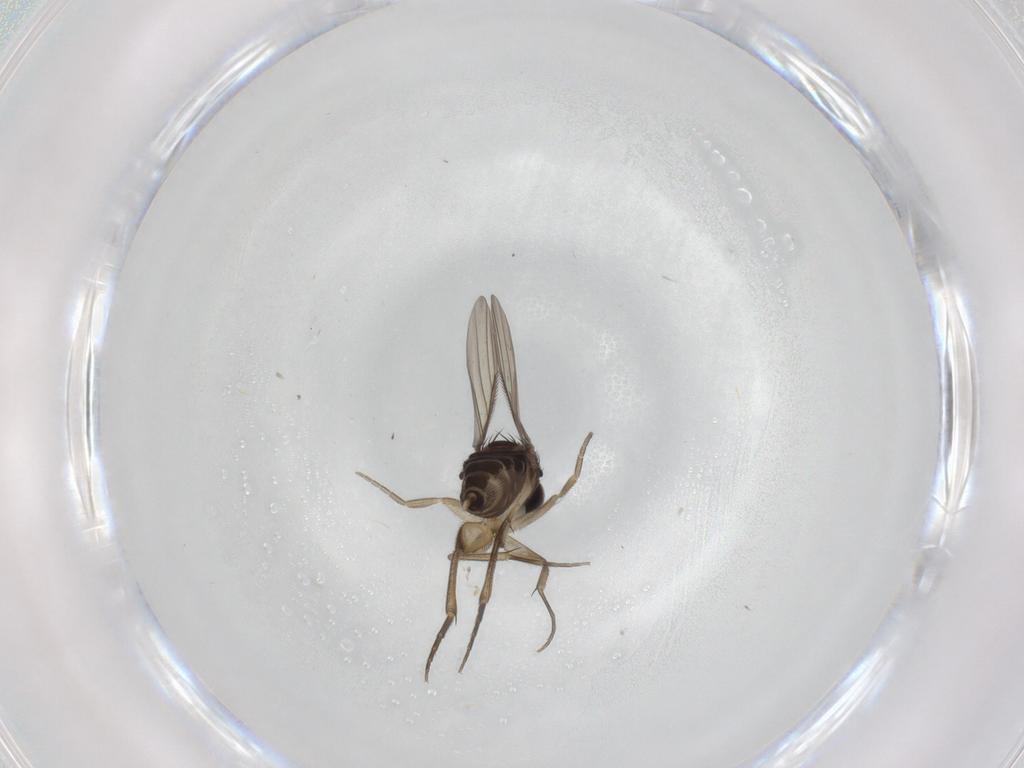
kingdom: Animalia
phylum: Arthropoda
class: Insecta
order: Diptera
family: Phoridae
